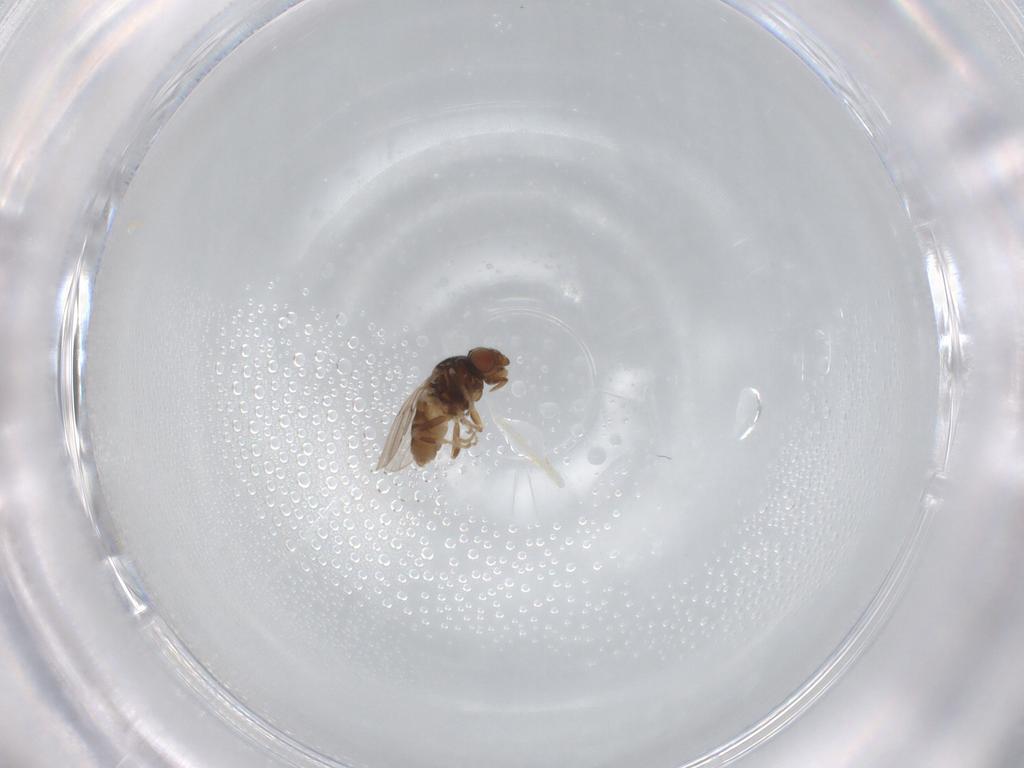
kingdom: Animalia
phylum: Arthropoda
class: Insecta
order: Diptera
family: Chloropidae
